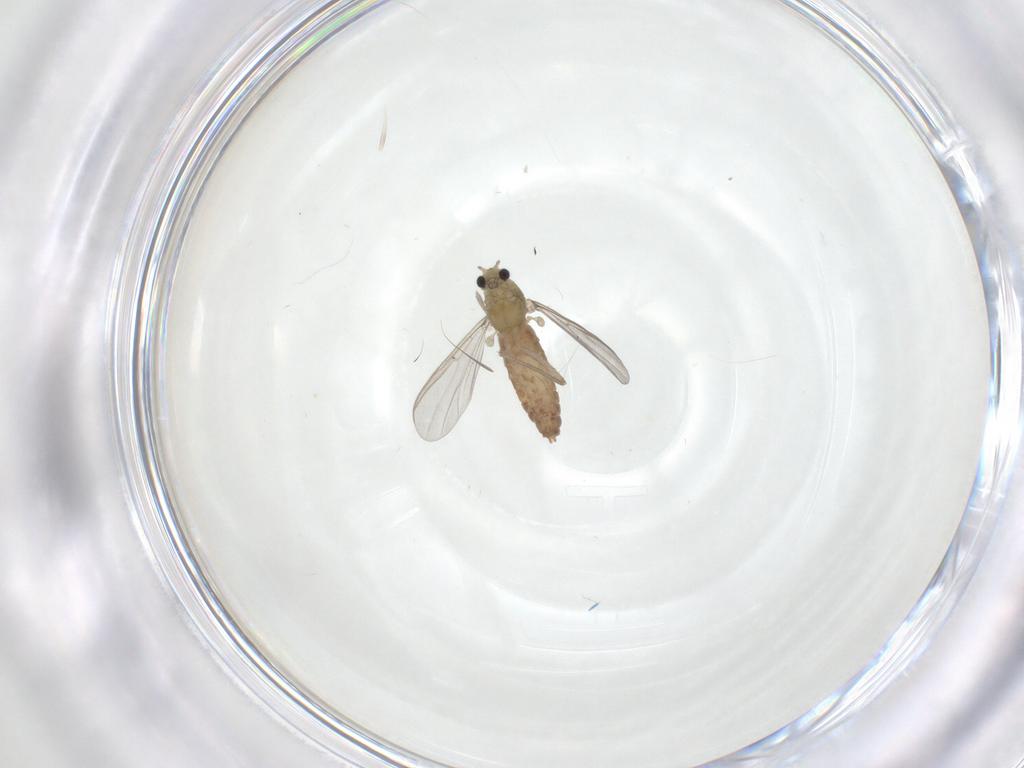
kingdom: Animalia
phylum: Arthropoda
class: Insecta
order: Diptera
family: Chironomidae
